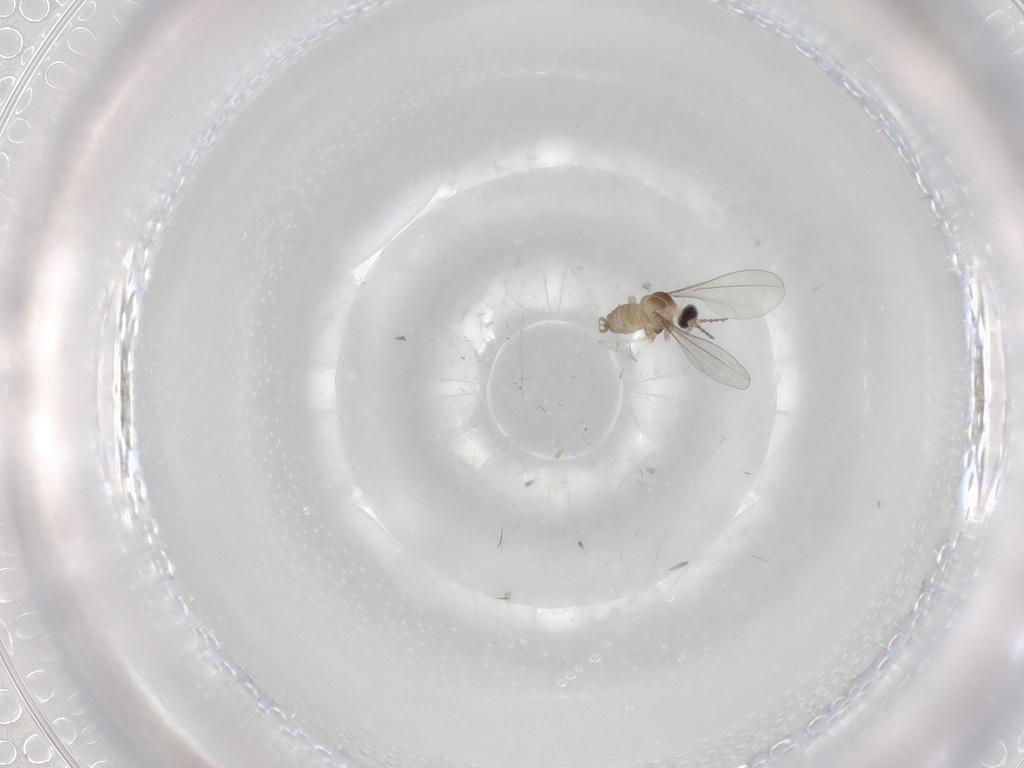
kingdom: Animalia
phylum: Arthropoda
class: Insecta
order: Diptera
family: Cecidomyiidae
